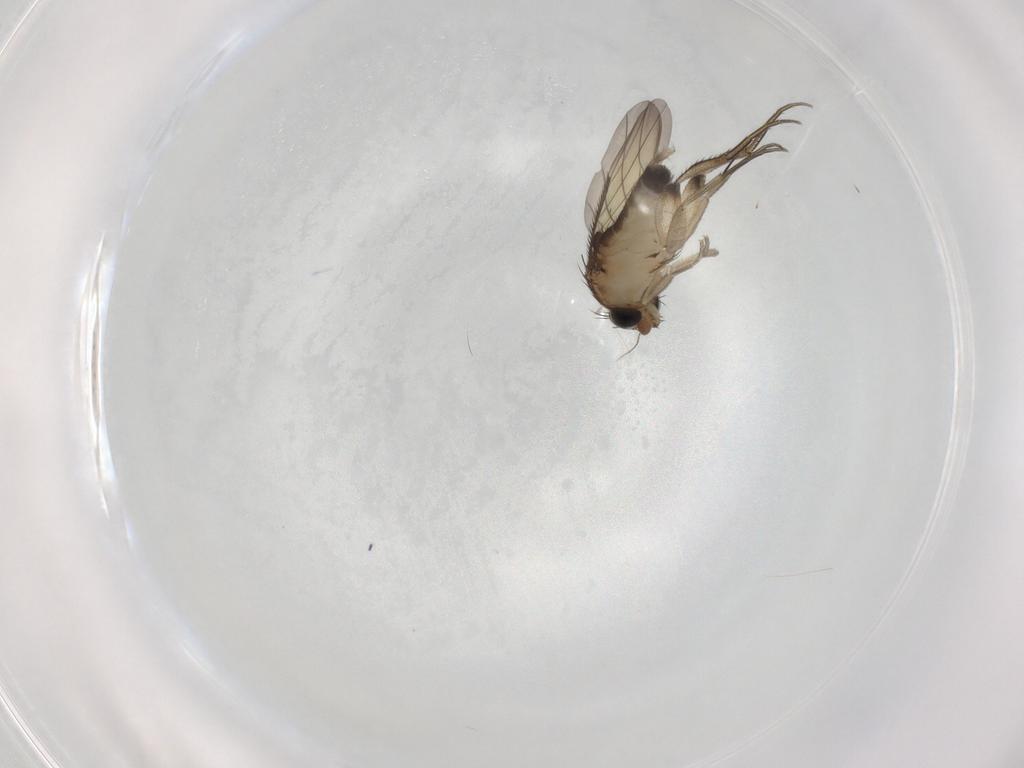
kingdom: Animalia
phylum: Arthropoda
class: Insecta
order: Diptera
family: Phoridae
